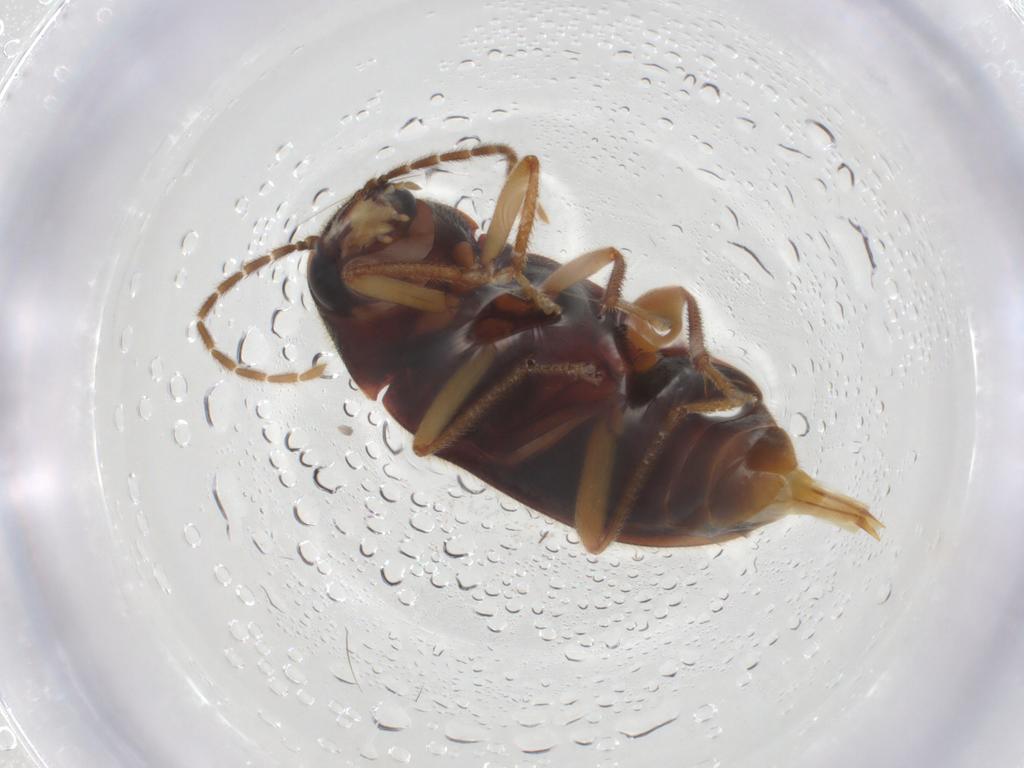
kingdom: Animalia
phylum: Arthropoda
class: Insecta
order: Coleoptera
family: Ptilodactylidae
